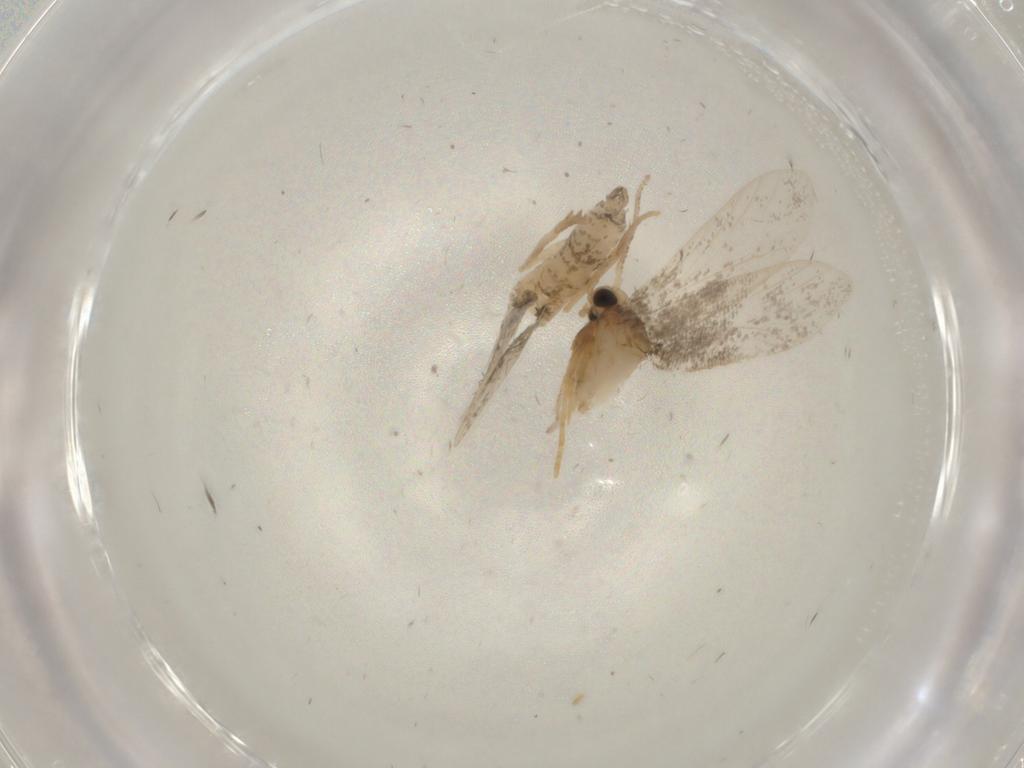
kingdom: Animalia
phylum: Arthropoda
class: Insecta
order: Lepidoptera
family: Psychidae
